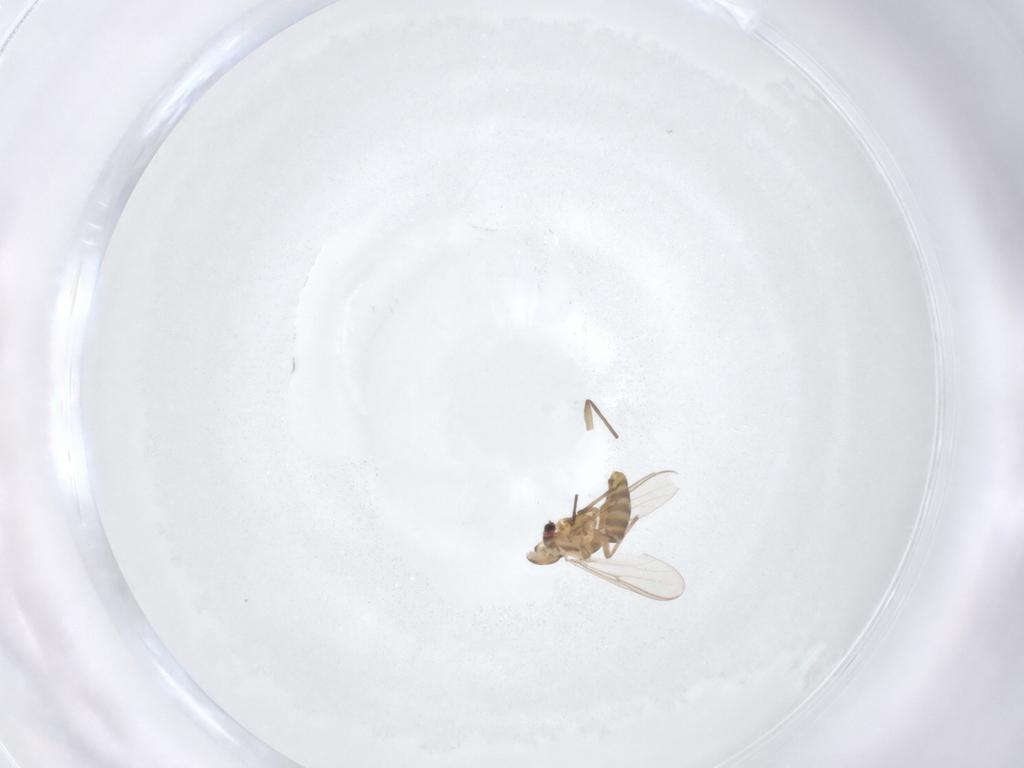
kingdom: Animalia
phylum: Arthropoda
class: Insecta
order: Diptera
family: Chironomidae
